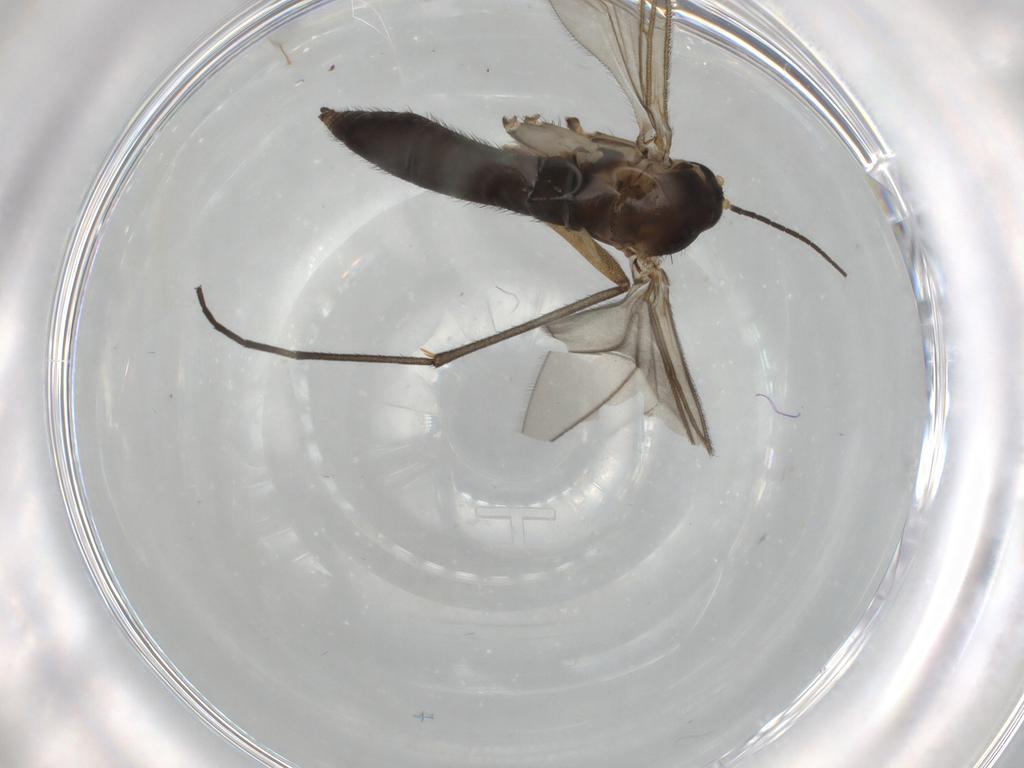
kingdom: Animalia
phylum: Arthropoda
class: Insecta
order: Diptera
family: Sciaridae
